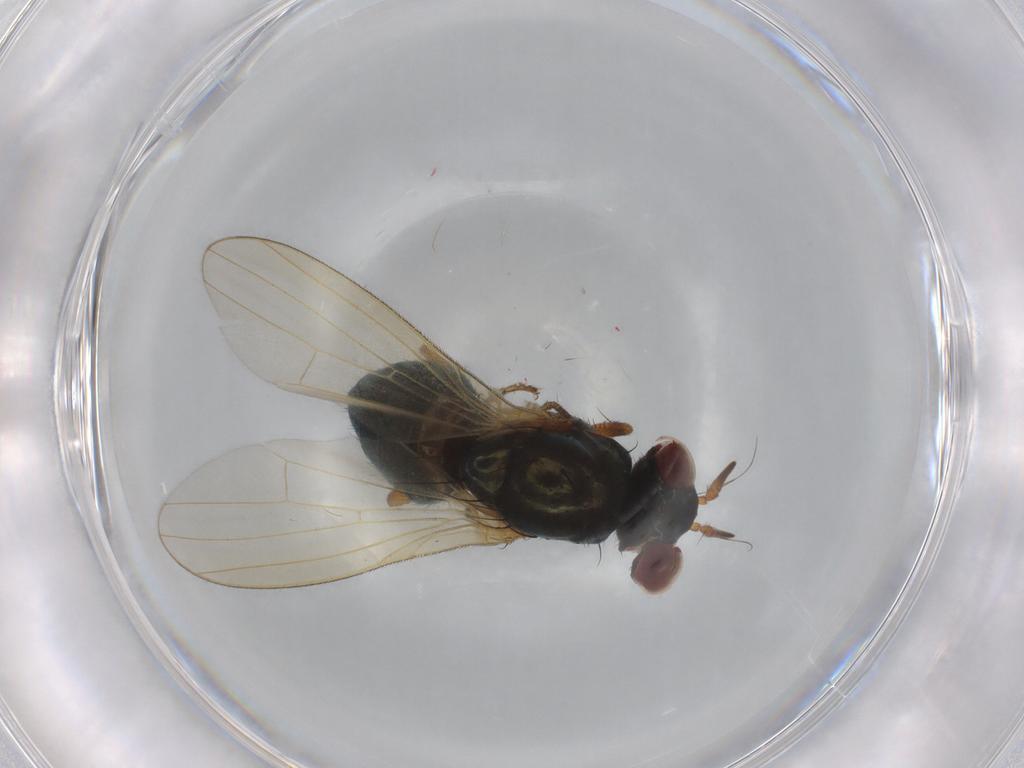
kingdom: Animalia
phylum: Arthropoda
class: Insecta
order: Diptera
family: Lauxaniidae
